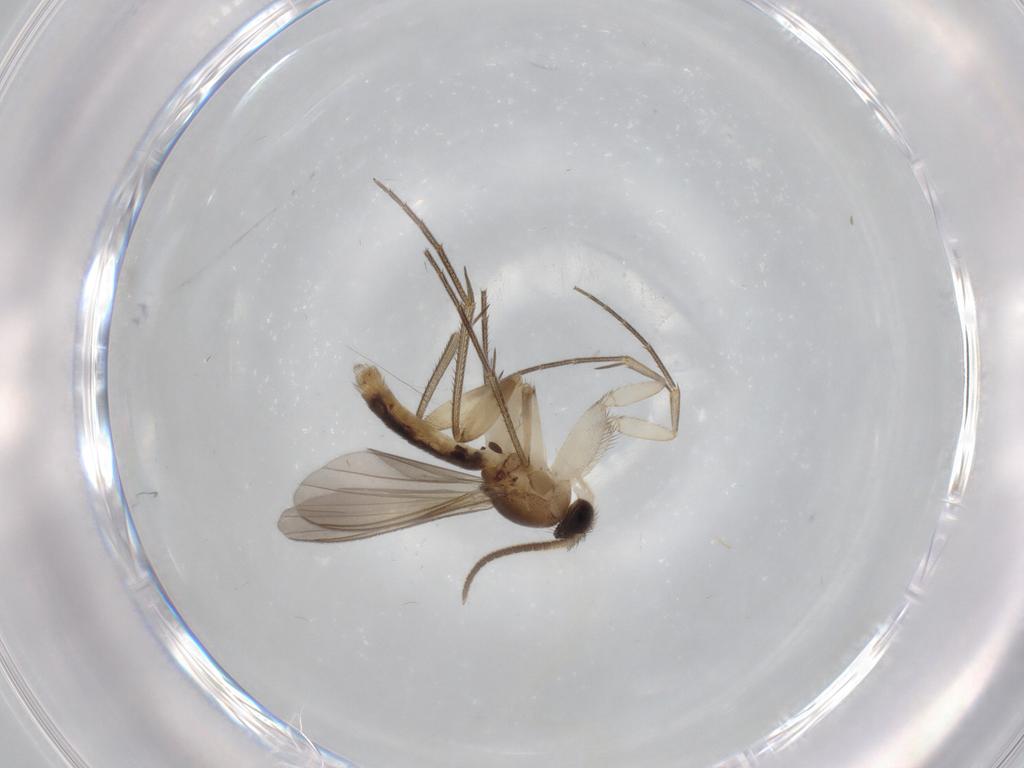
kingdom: Animalia
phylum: Arthropoda
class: Insecta
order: Diptera
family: Mycetophilidae
